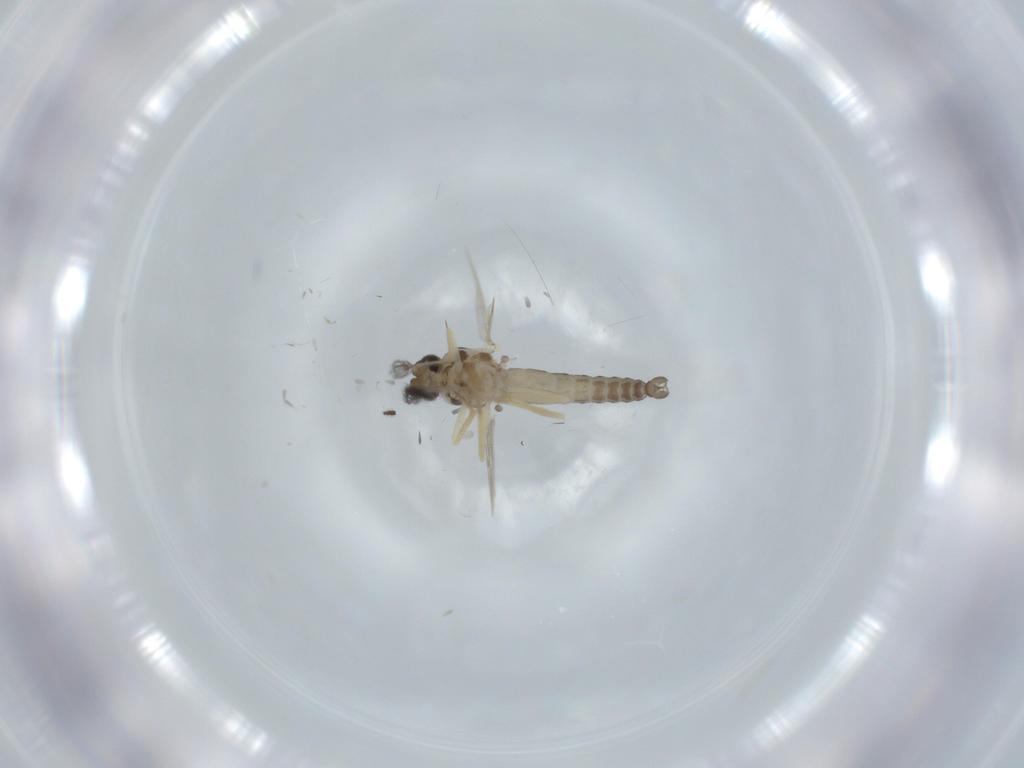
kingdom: Animalia
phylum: Arthropoda
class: Insecta
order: Diptera
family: Ceratopogonidae
